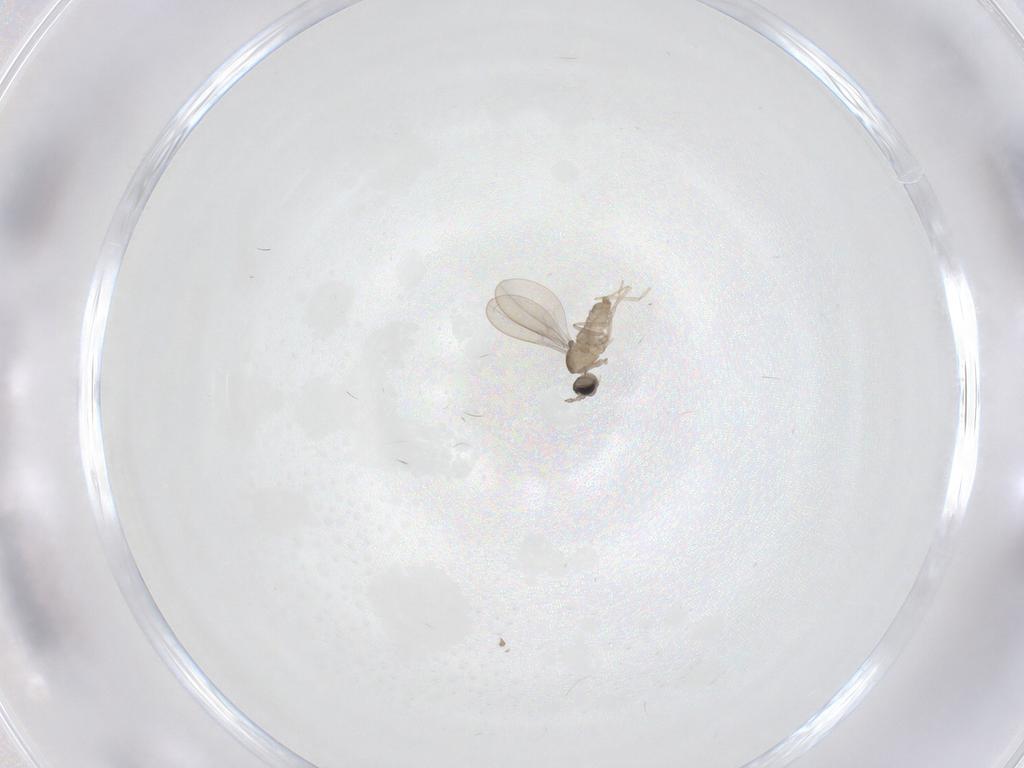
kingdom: Animalia
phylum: Arthropoda
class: Insecta
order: Diptera
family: Cecidomyiidae
